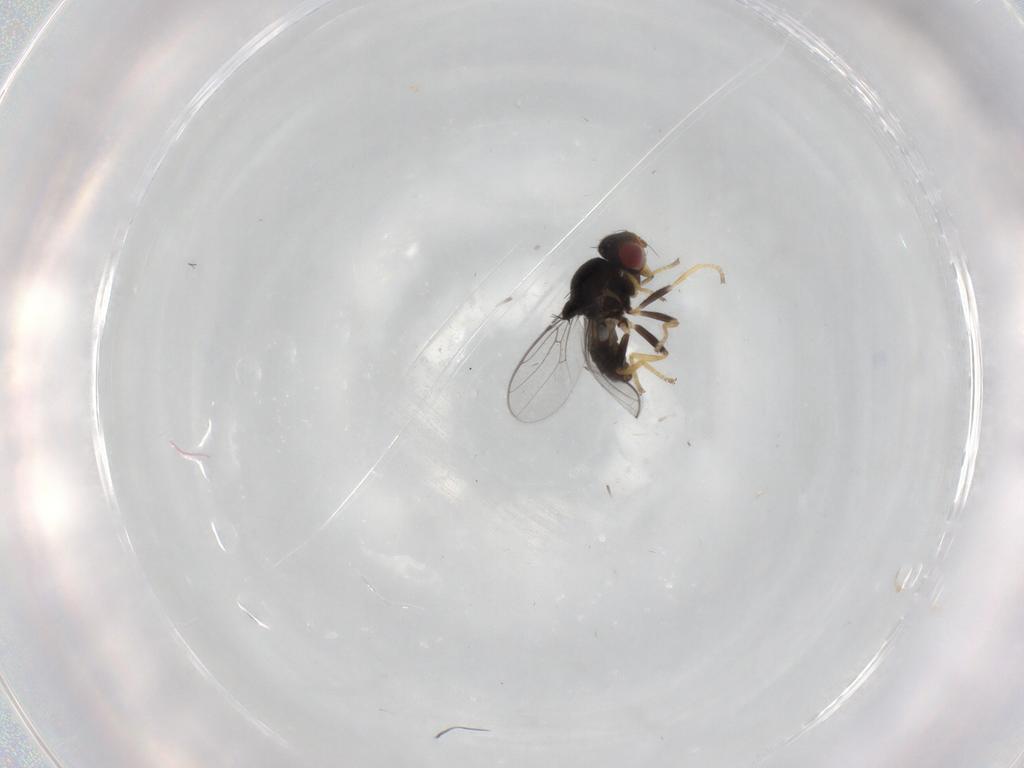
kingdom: Animalia
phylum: Arthropoda
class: Insecta
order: Diptera
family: Chloropidae
